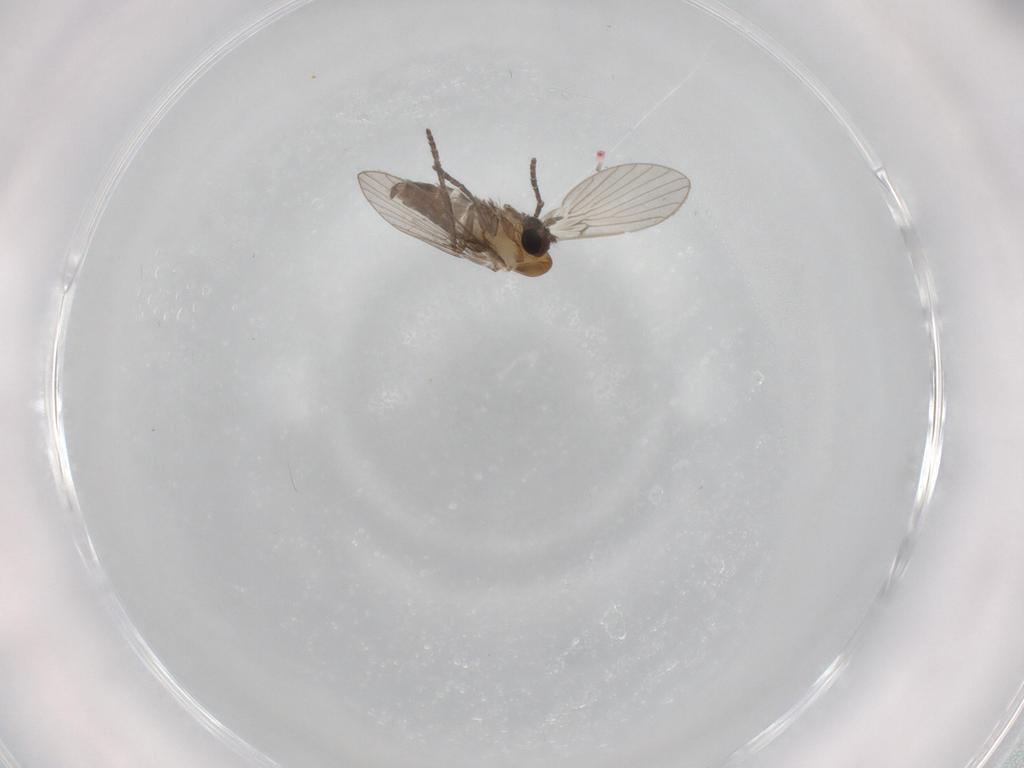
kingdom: Animalia
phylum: Arthropoda
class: Insecta
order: Diptera
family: Psychodidae
